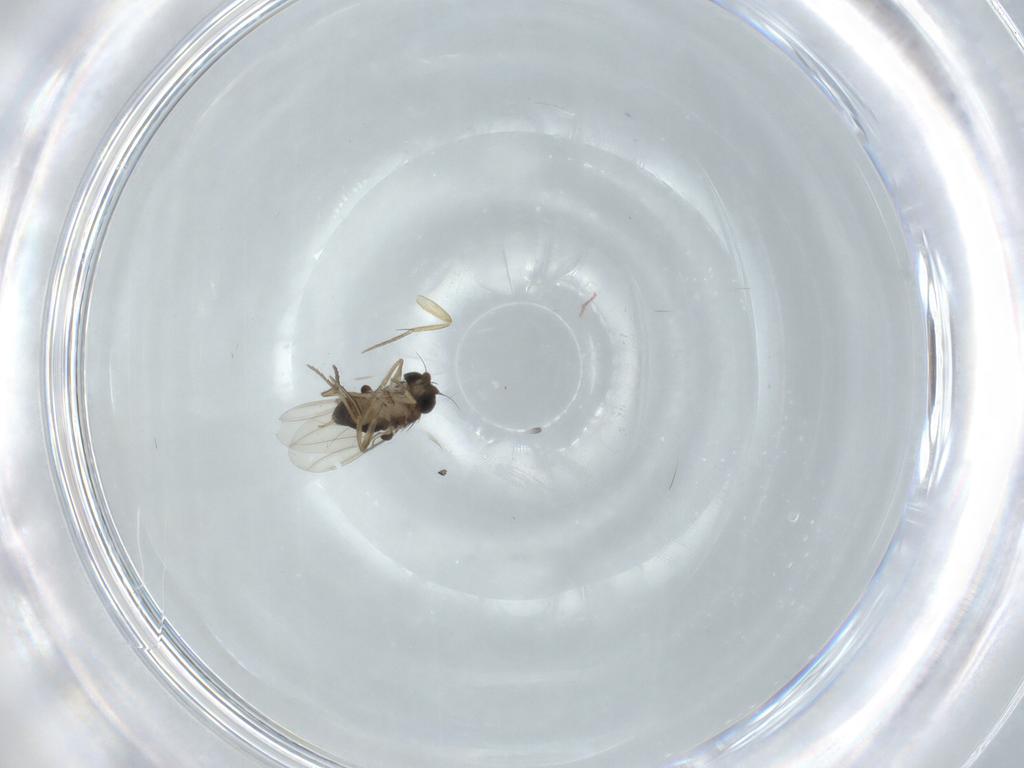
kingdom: Animalia
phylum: Arthropoda
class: Insecta
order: Diptera
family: Phoridae
